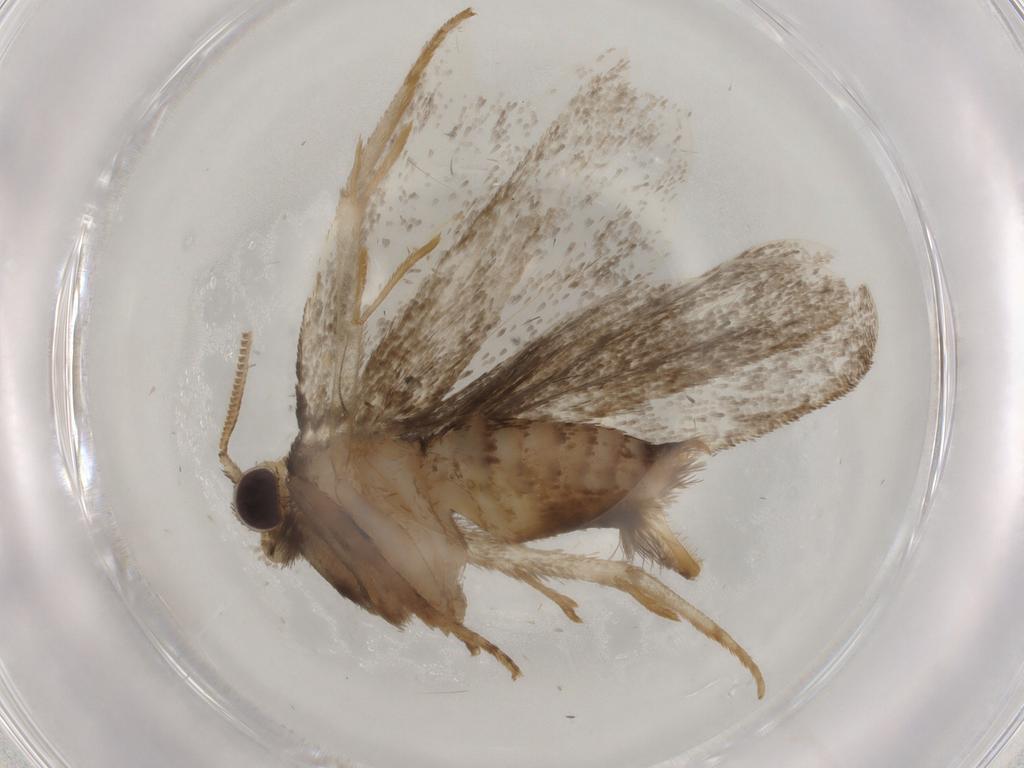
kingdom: Animalia
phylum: Arthropoda
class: Insecta
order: Lepidoptera
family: Tineidae
